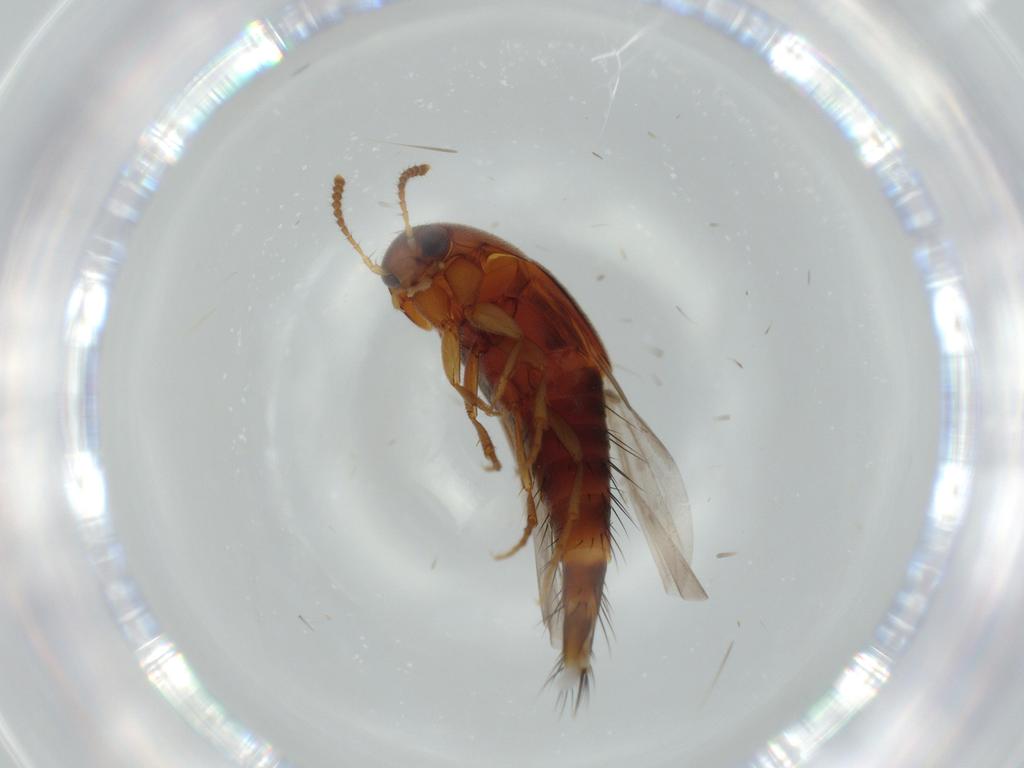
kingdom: Animalia
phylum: Arthropoda
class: Insecta
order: Coleoptera
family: Staphylinidae
